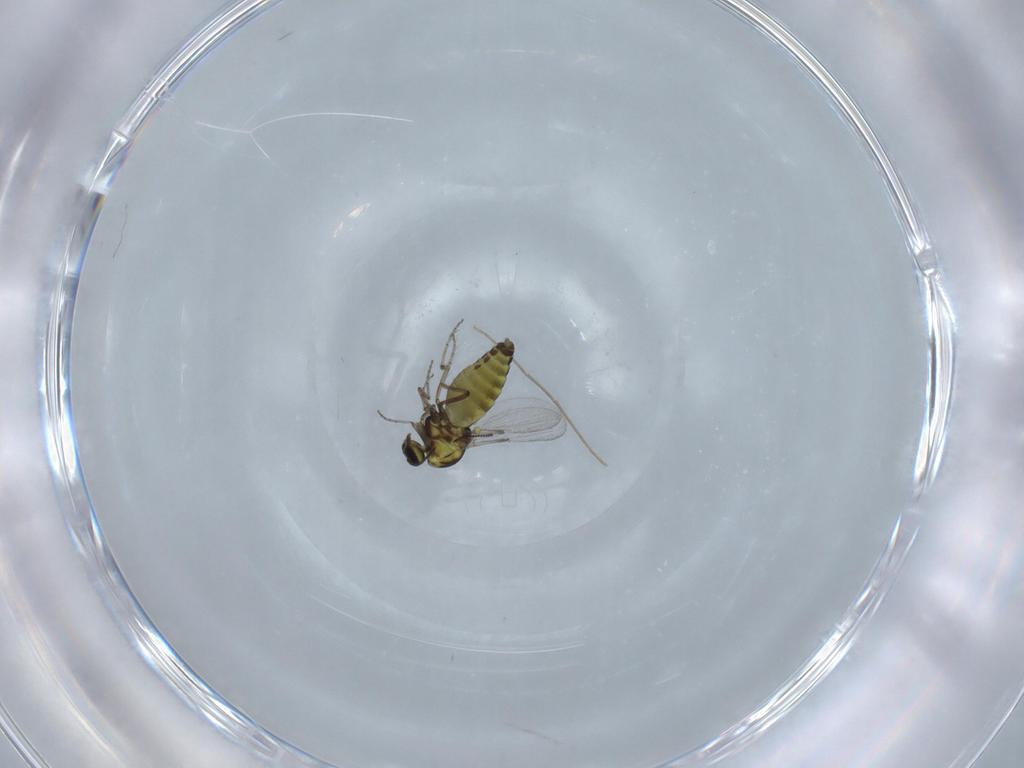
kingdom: Animalia
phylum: Arthropoda
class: Insecta
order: Diptera
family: Ceratopogonidae
